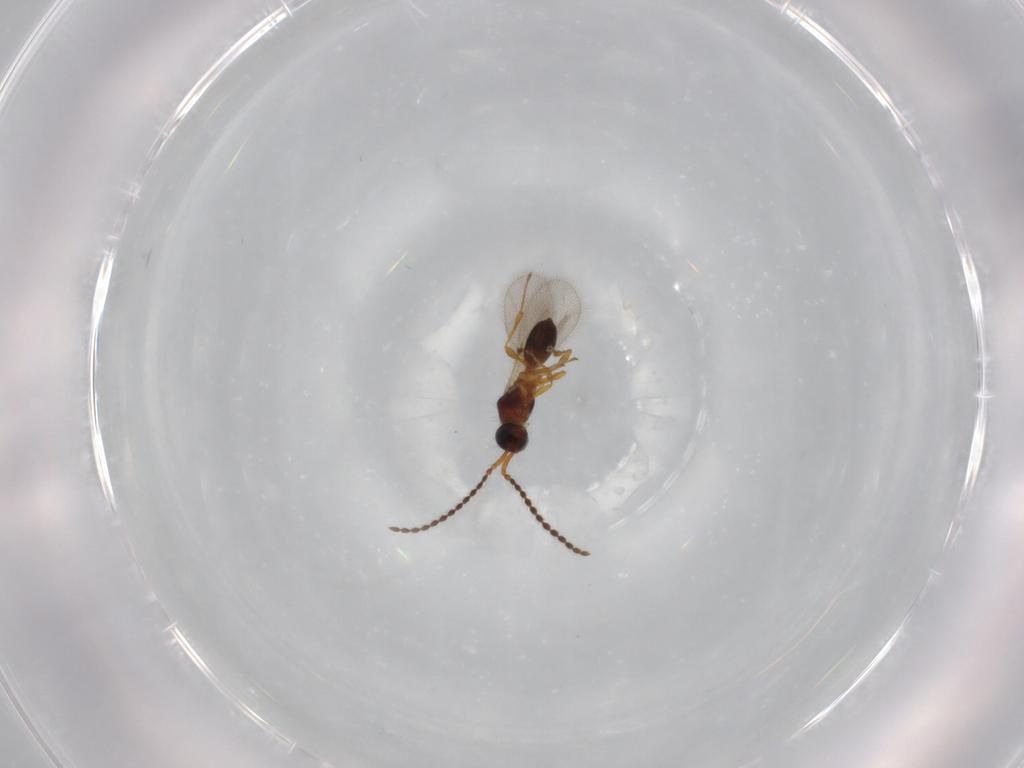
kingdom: Animalia
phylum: Arthropoda
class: Insecta
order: Hymenoptera
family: Diapriidae
